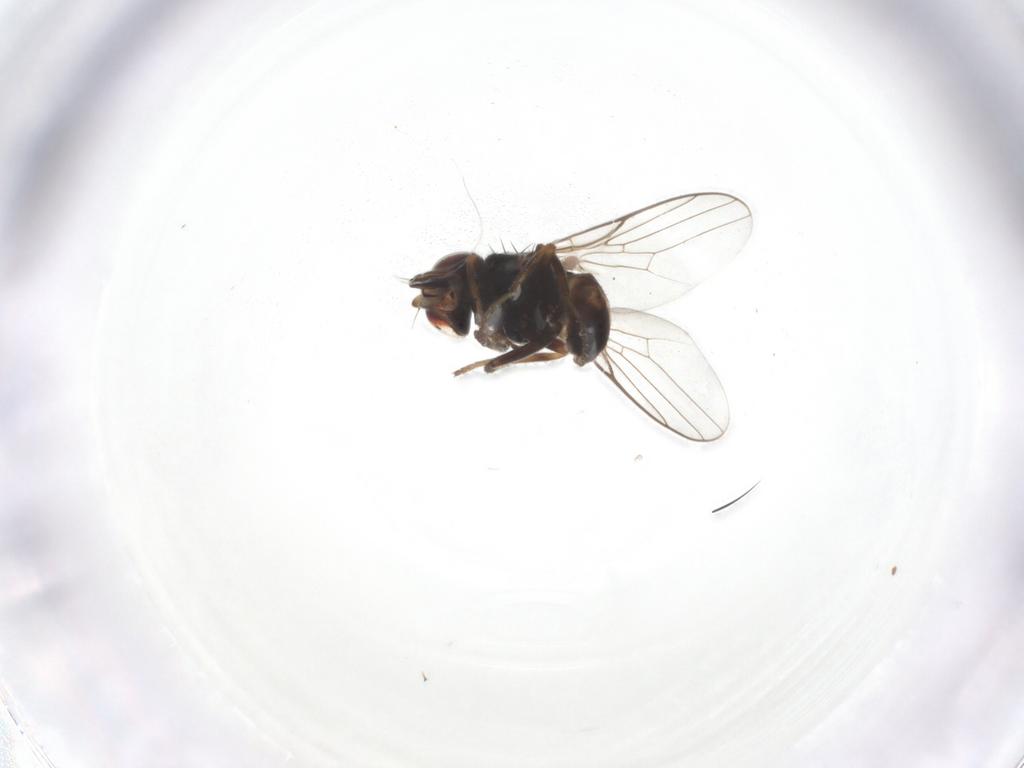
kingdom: Animalia
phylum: Arthropoda
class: Insecta
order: Diptera
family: Chloropidae
